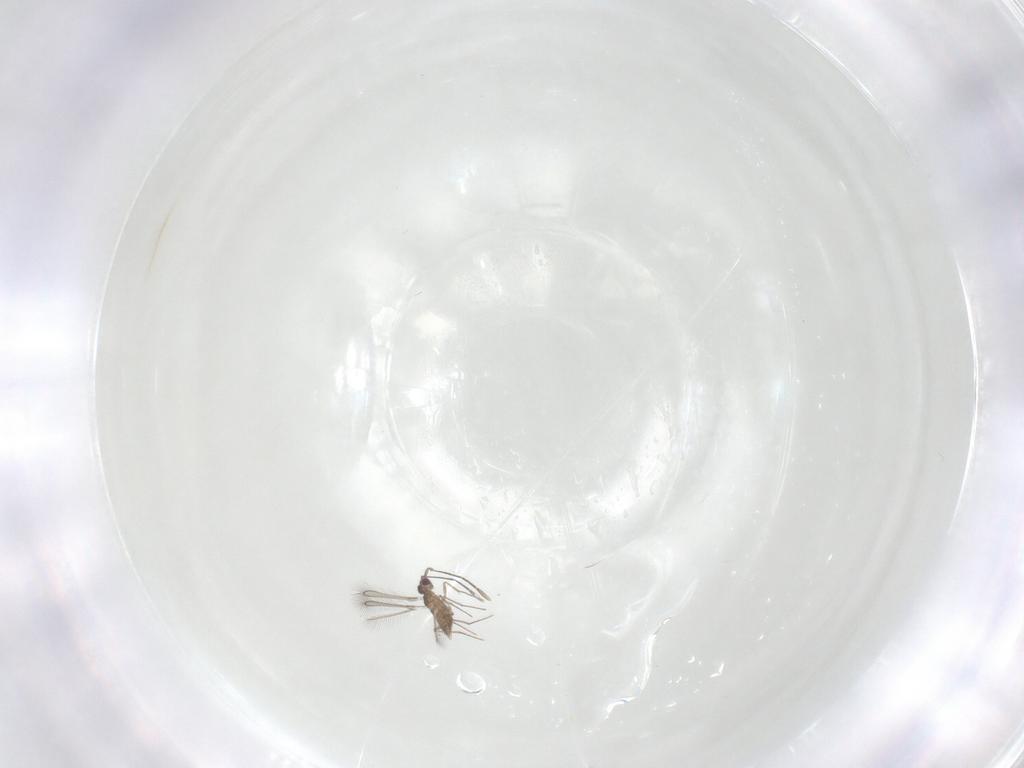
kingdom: Animalia
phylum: Arthropoda
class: Insecta
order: Hymenoptera
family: Mymaridae
